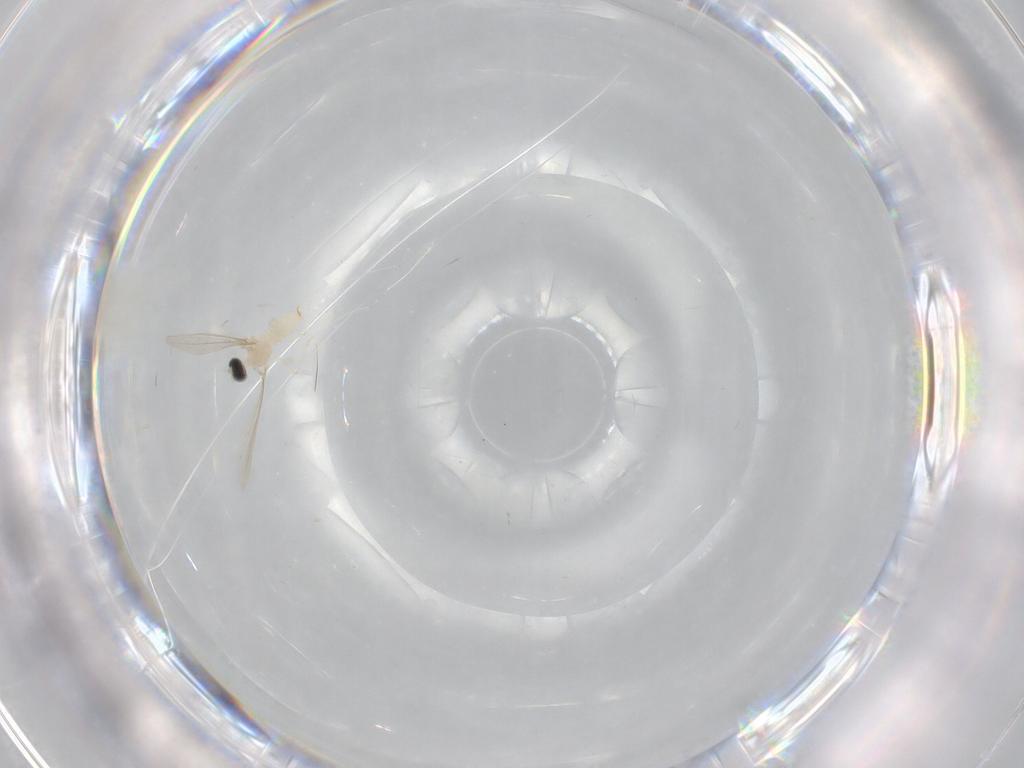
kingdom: Animalia
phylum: Arthropoda
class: Insecta
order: Diptera
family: Cecidomyiidae
